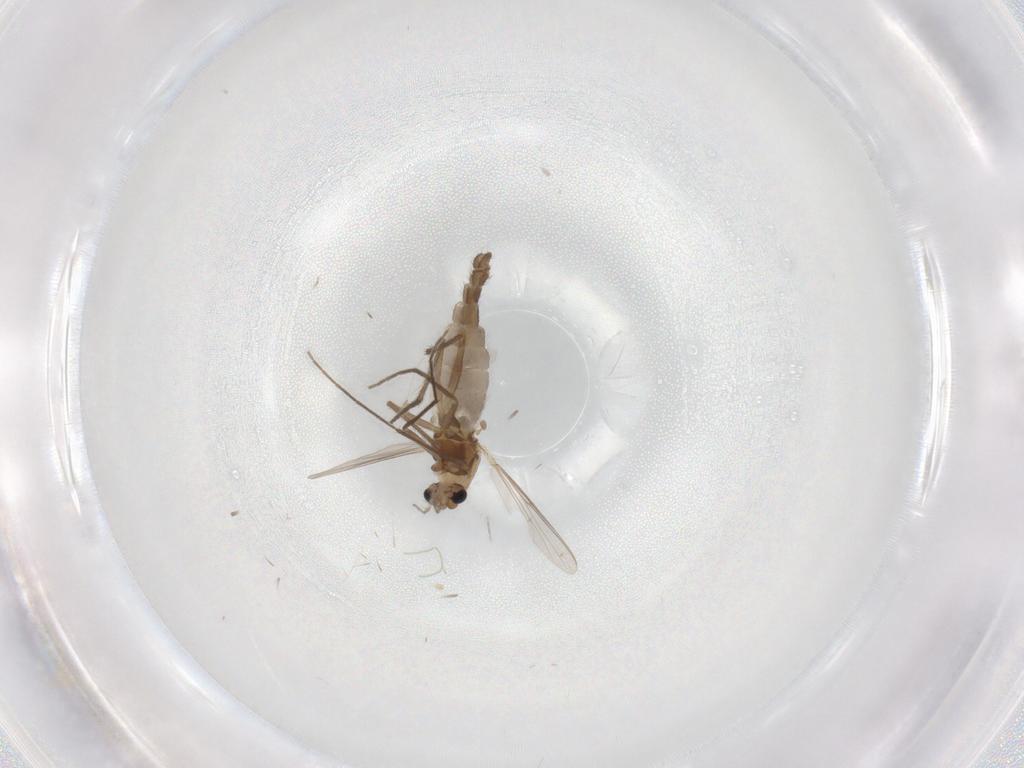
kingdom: Animalia
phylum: Arthropoda
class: Insecta
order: Diptera
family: Chironomidae
